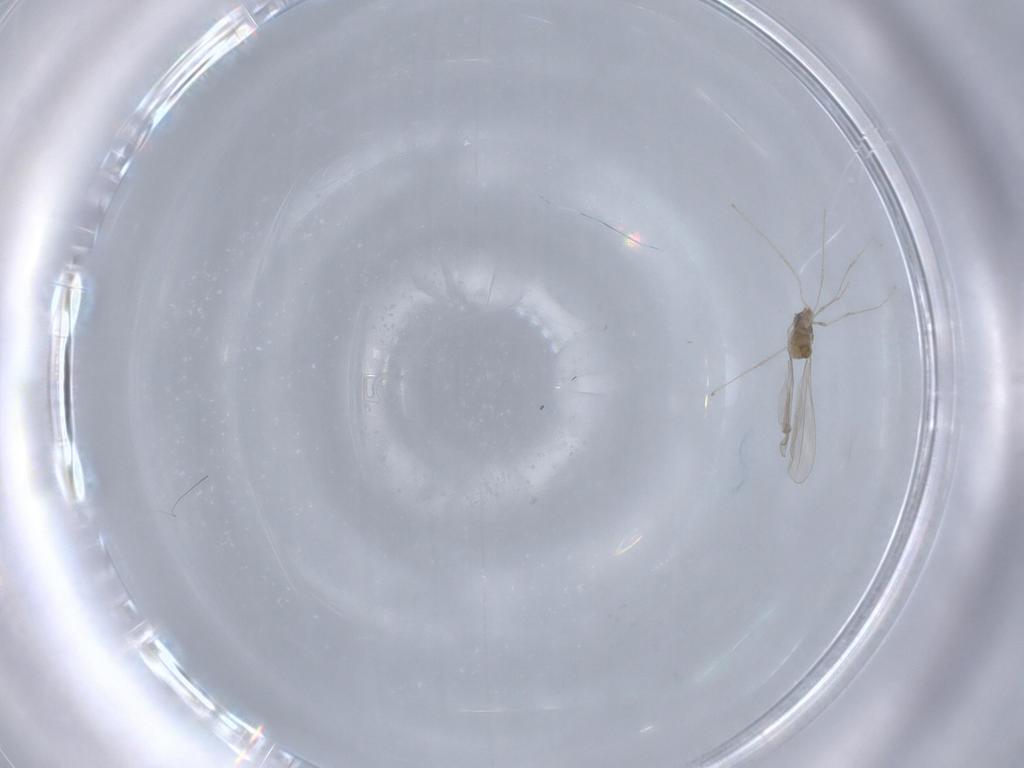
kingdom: Animalia
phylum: Arthropoda
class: Insecta
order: Diptera
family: Cecidomyiidae
